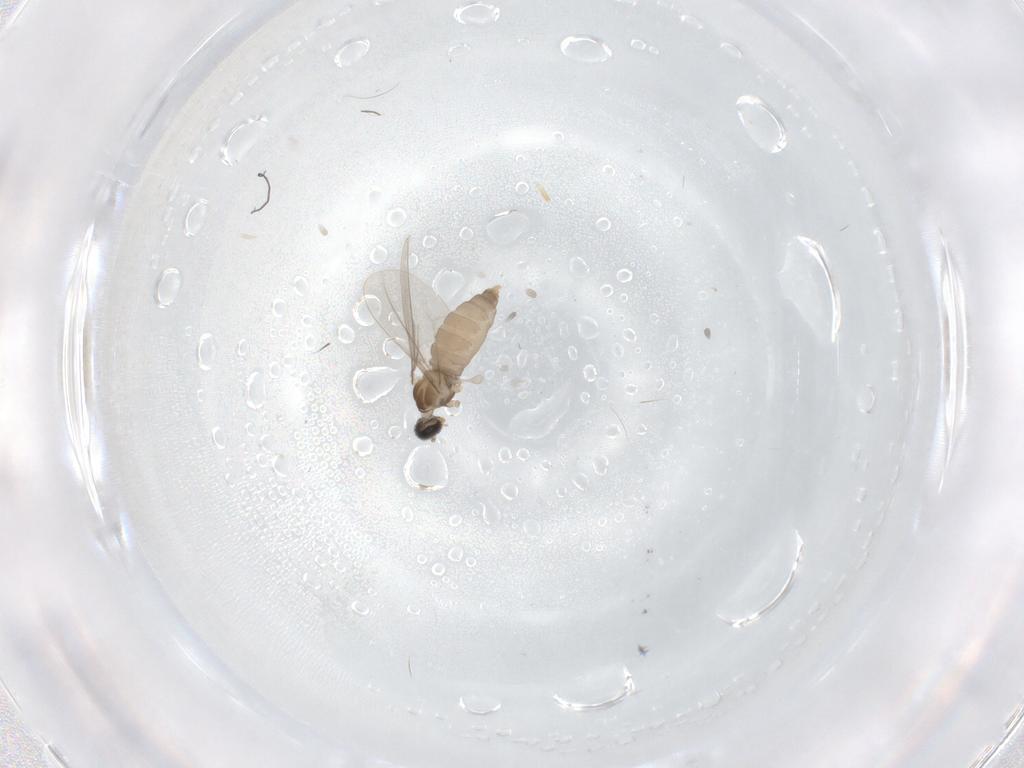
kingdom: Animalia
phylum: Arthropoda
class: Insecta
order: Diptera
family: Cecidomyiidae
